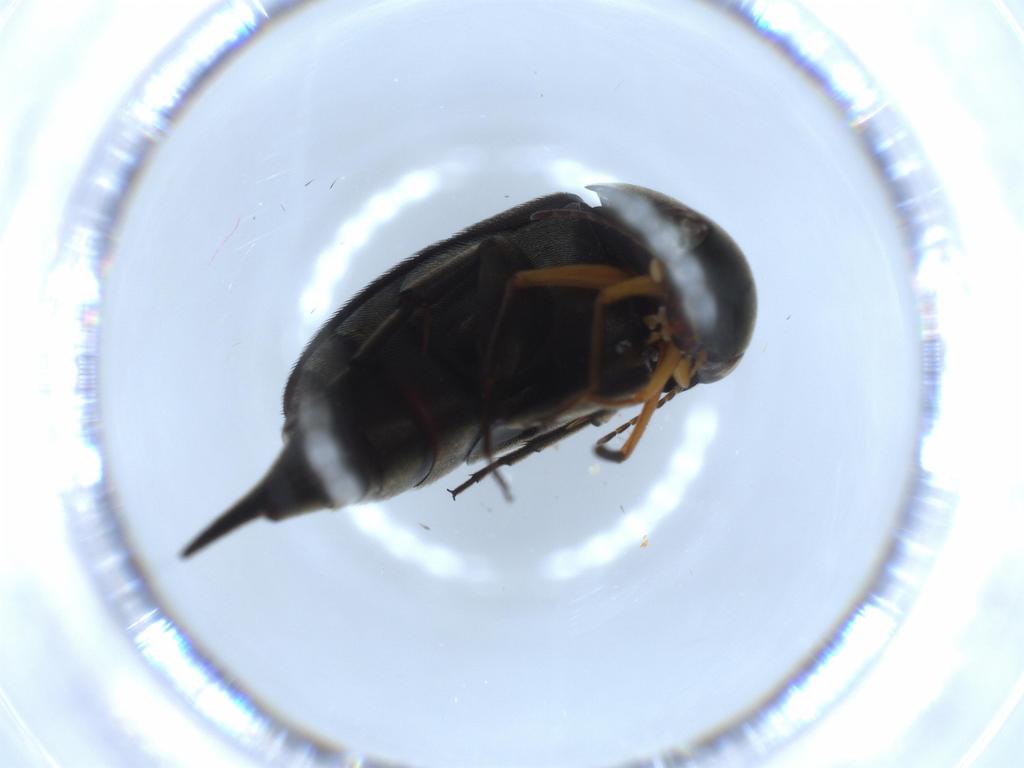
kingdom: Animalia
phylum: Arthropoda
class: Insecta
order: Coleoptera
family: Mordellidae
